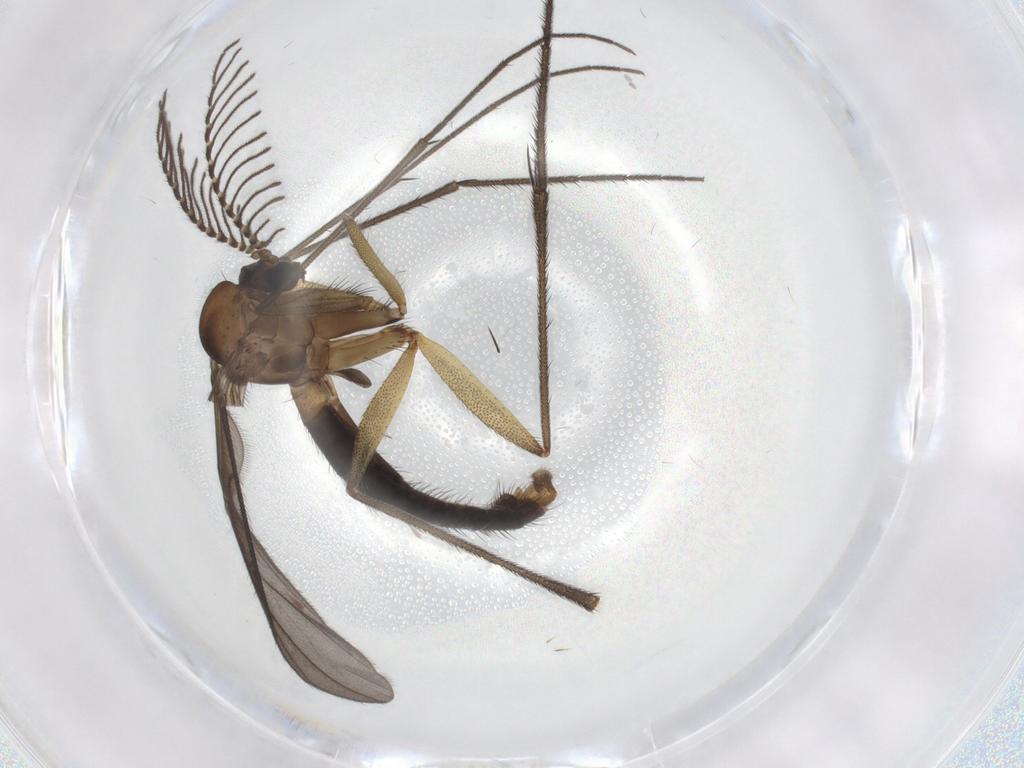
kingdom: Animalia
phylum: Arthropoda
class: Insecta
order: Diptera
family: Ditomyiidae
